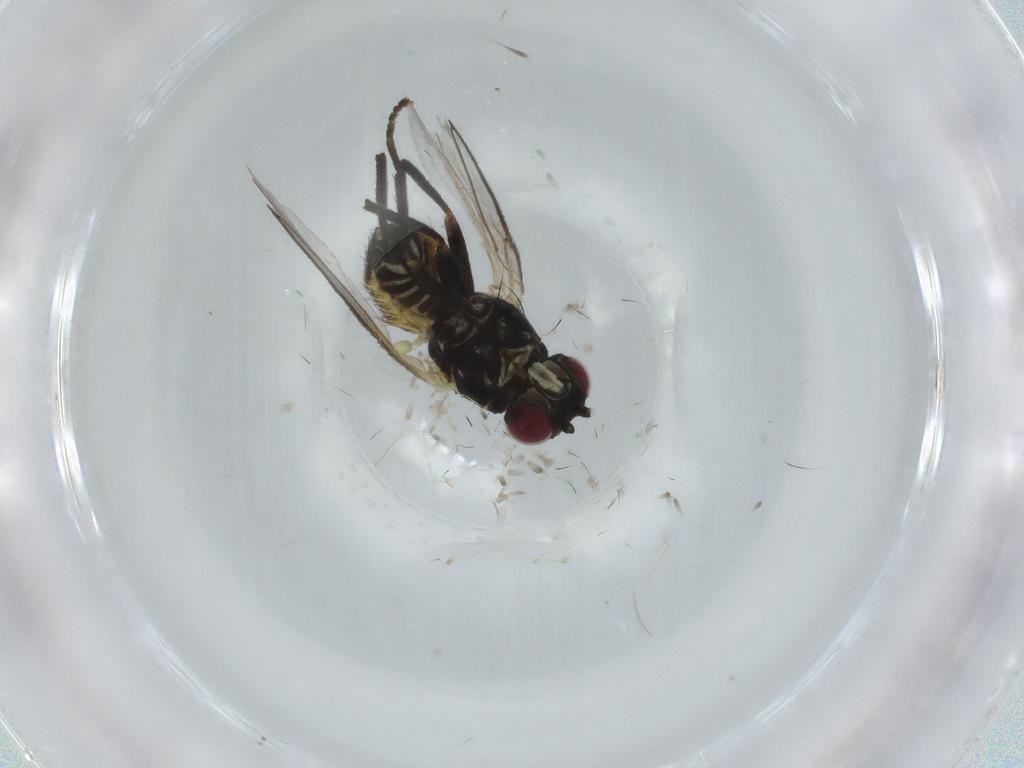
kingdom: Animalia
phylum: Arthropoda
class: Insecta
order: Diptera
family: Agromyzidae
